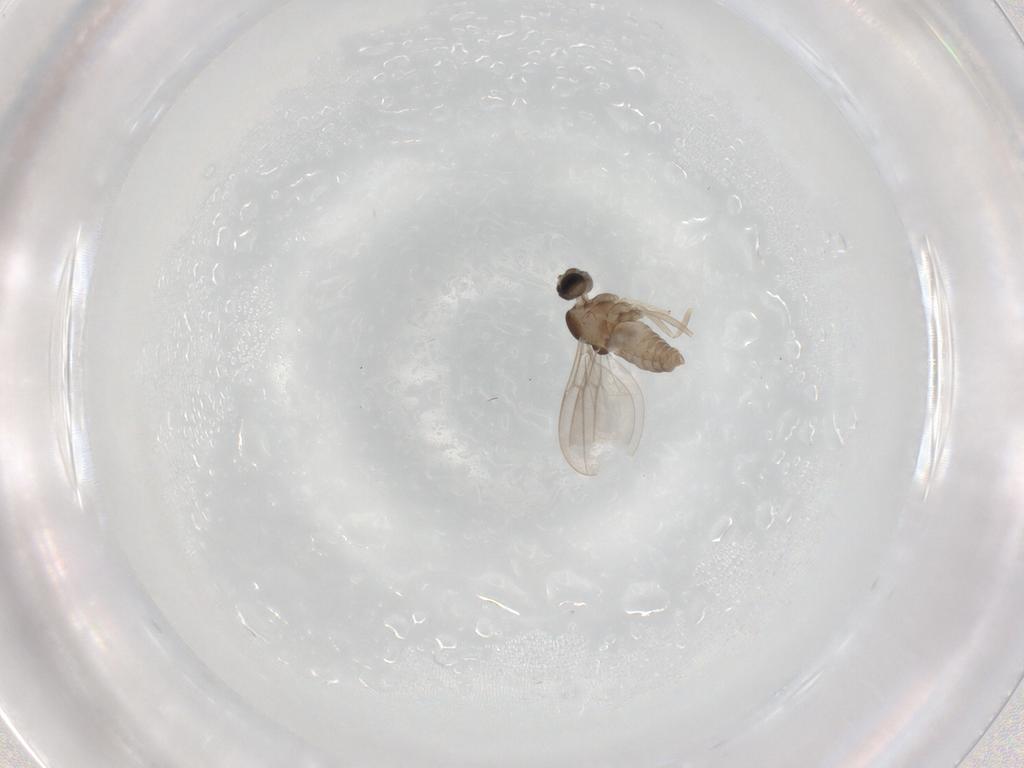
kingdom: Animalia
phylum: Arthropoda
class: Insecta
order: Diptera
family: Cecidomyiidae
